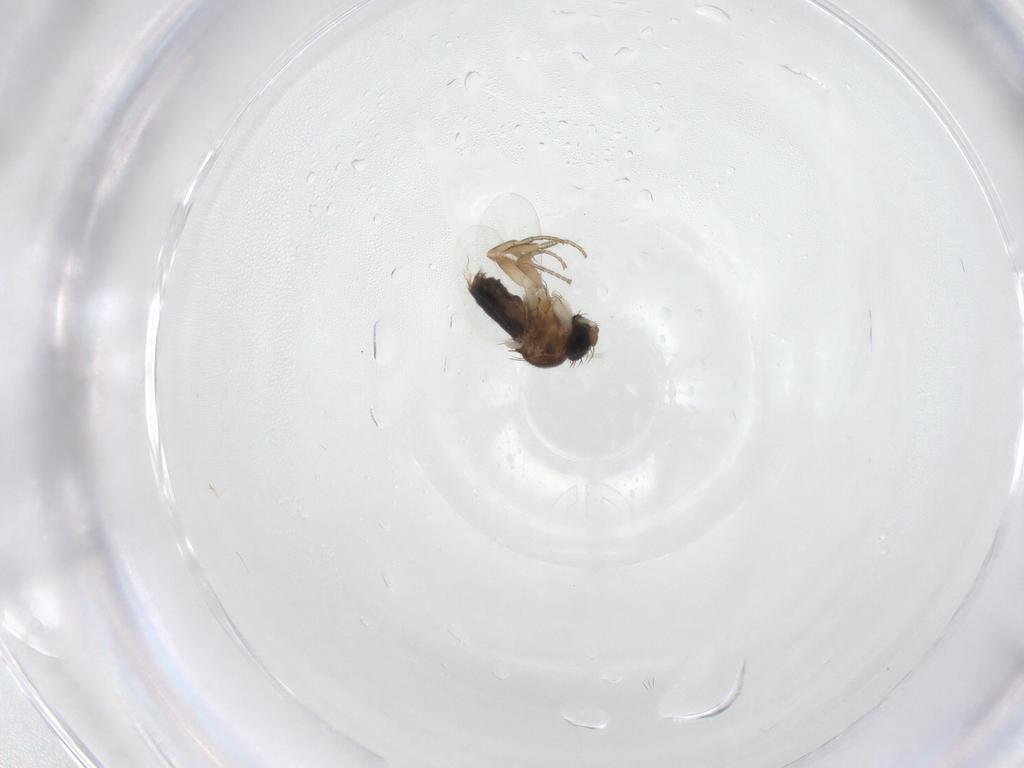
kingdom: Animalia
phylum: Arthropoda
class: Insecta
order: Diptera
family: Phoridae
